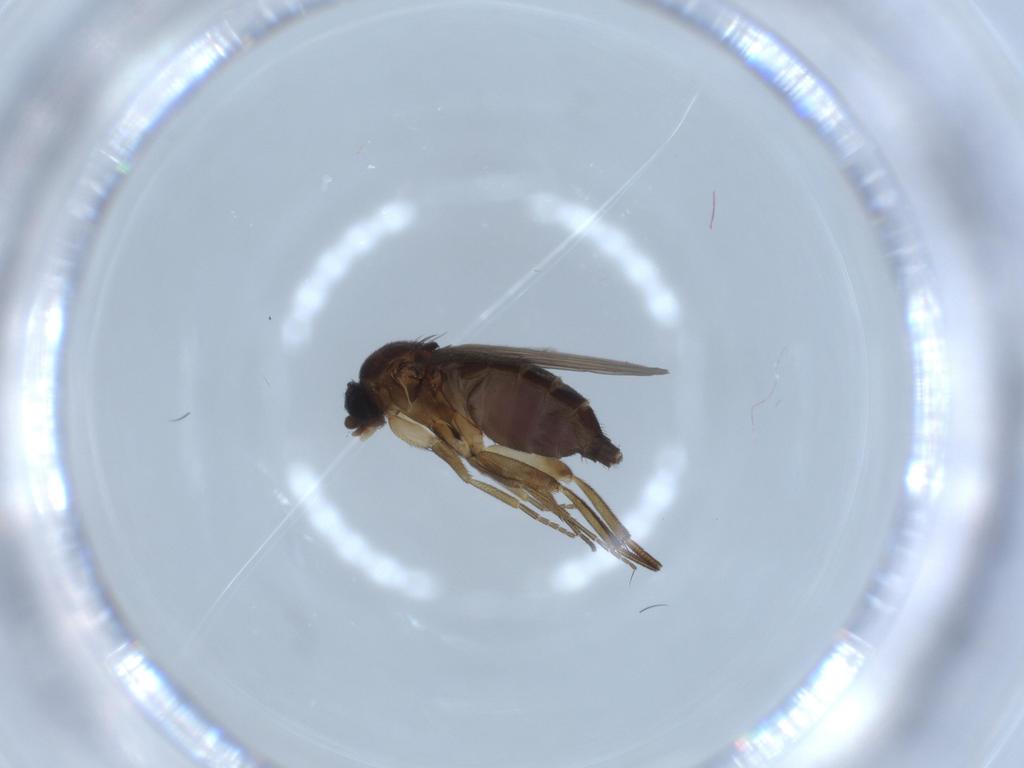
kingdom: Animalia
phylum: Arthropoda
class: Insecta
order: Diptera
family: Phoridae
